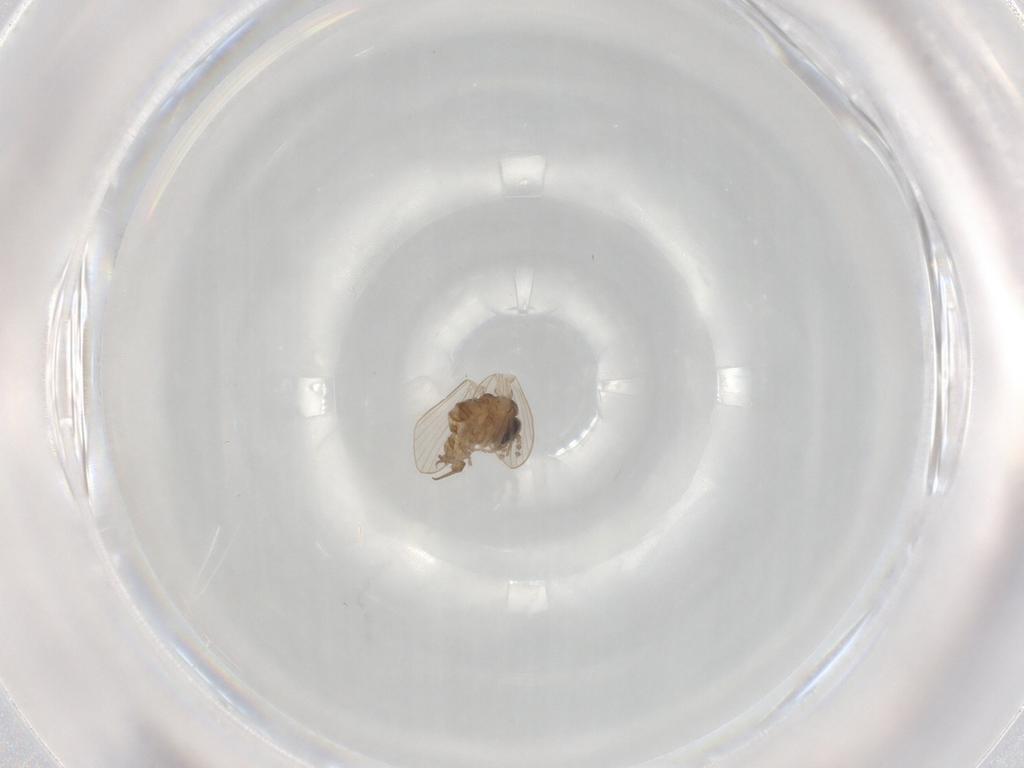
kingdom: Animalia
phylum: Arthropoda
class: Insecta
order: Diptera
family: Psychodidae
